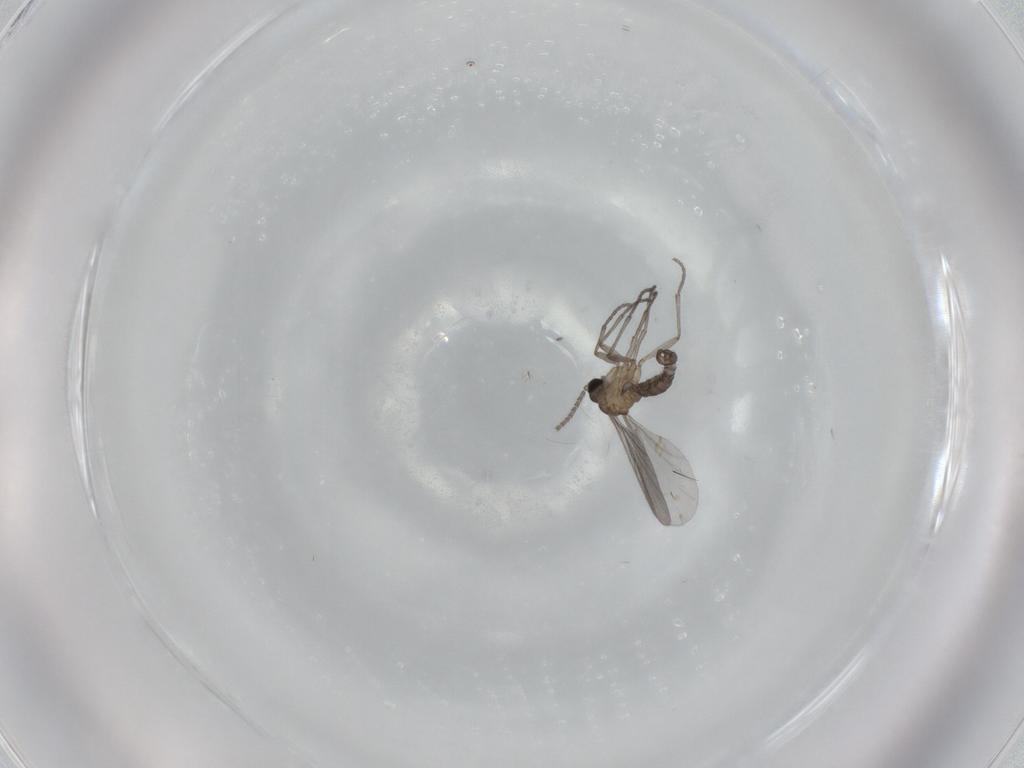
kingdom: Animalia
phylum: Arthropoda
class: Insecta
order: Diptera
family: Sciaridae
